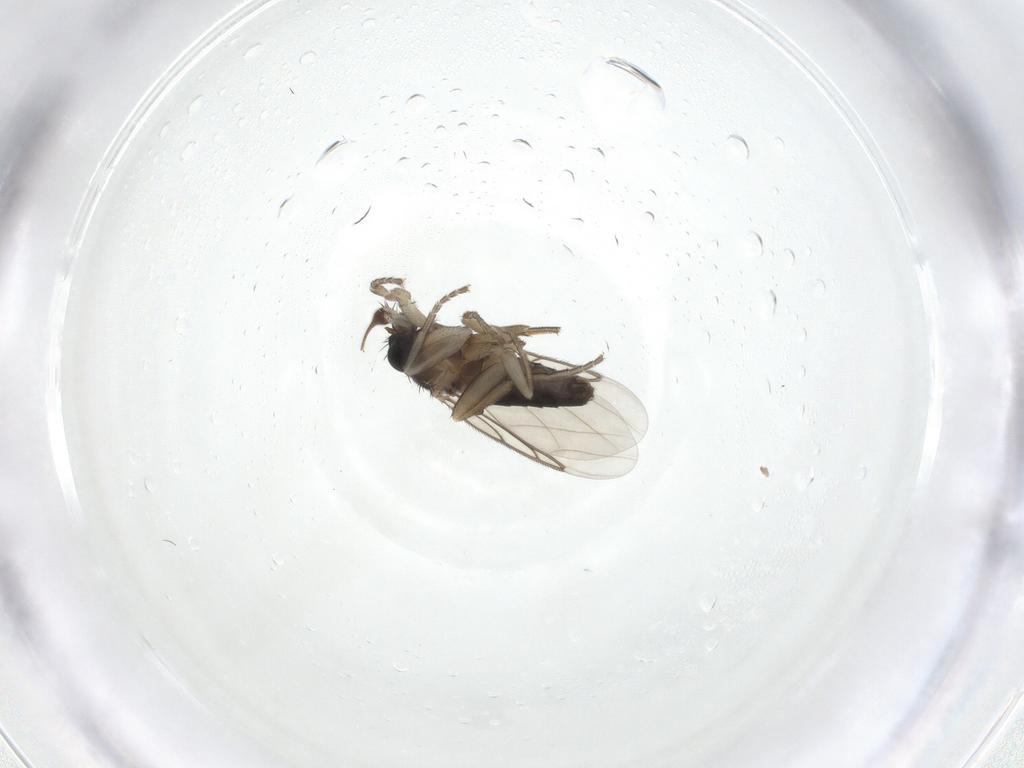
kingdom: Animalia
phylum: Arthropoda
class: Insecta
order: Diptera
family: Phoridae
